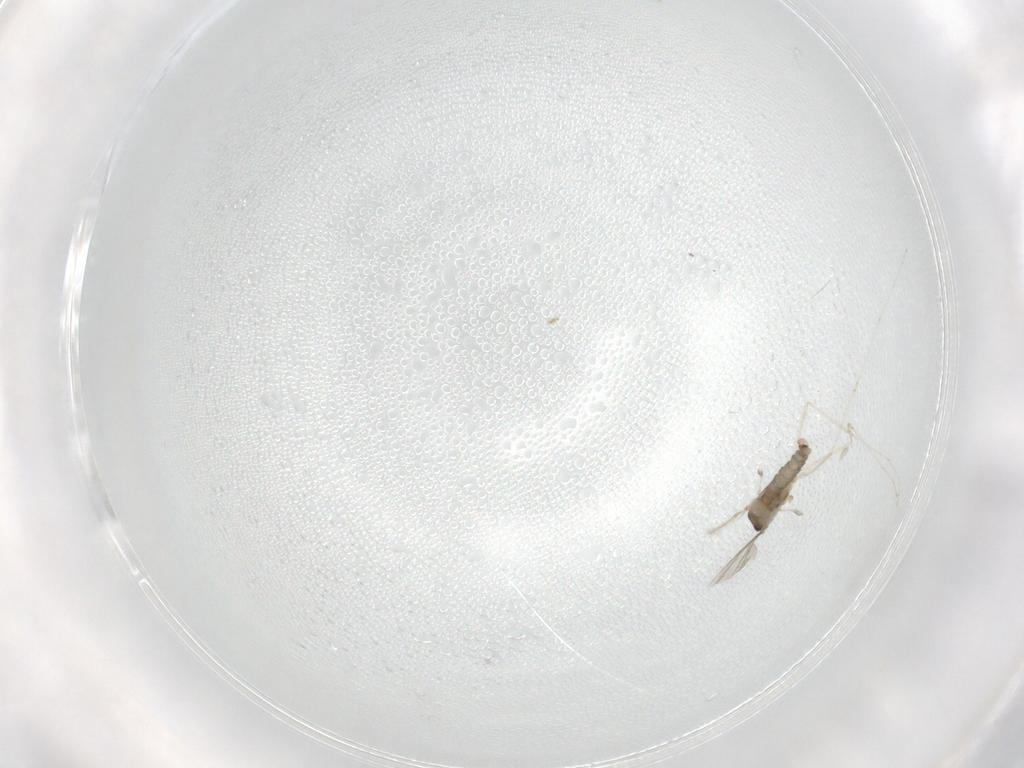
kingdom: Animalia
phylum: Arthropoda
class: Insecta
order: Diptera
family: Cecidomyiidae
